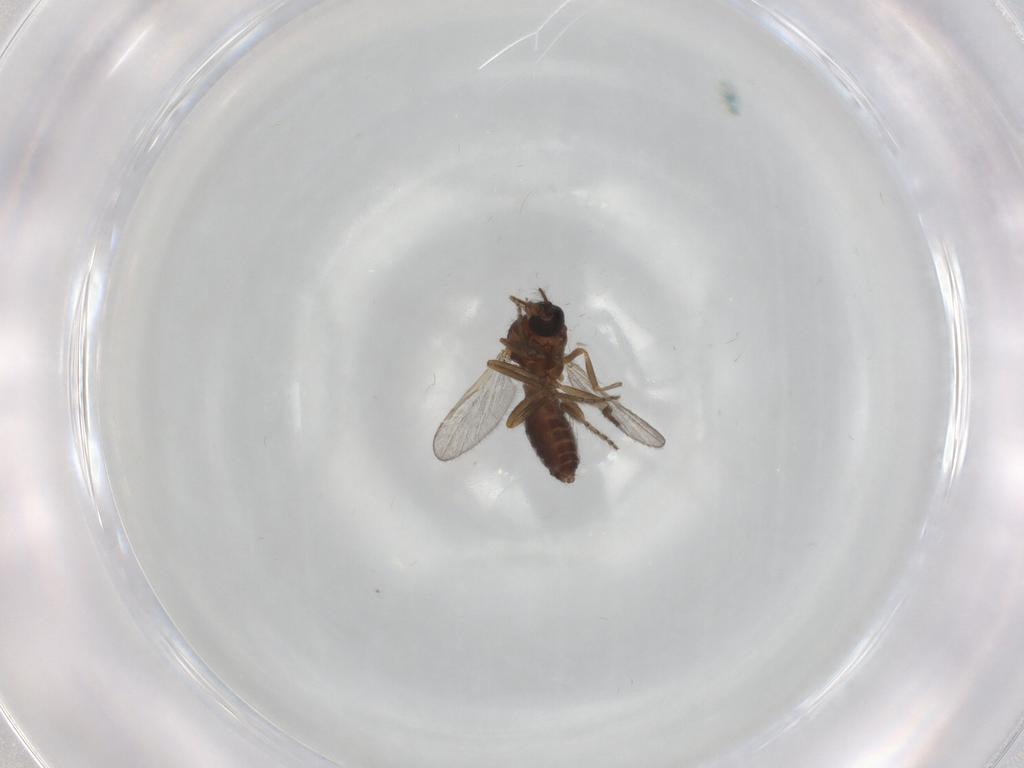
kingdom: Animalia
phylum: Arthropoda
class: Insecta
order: Diptera
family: Ceratopogonidae
